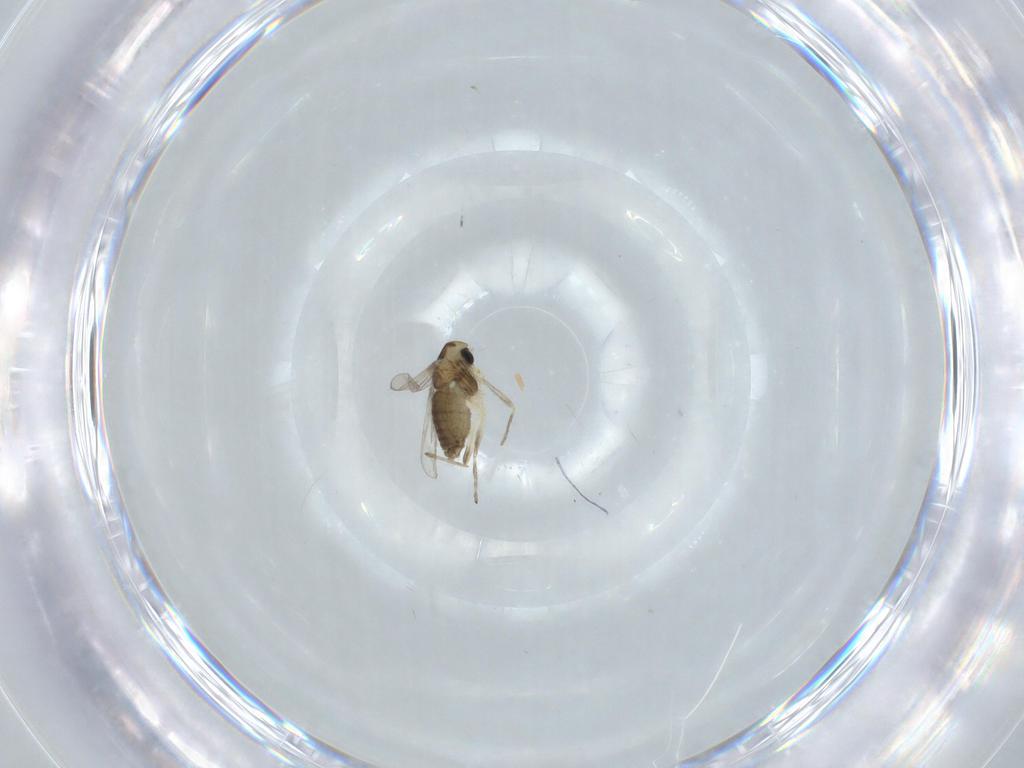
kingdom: Animalia
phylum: Arthropoda
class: Insecta
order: Diptera
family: Chironomidae
